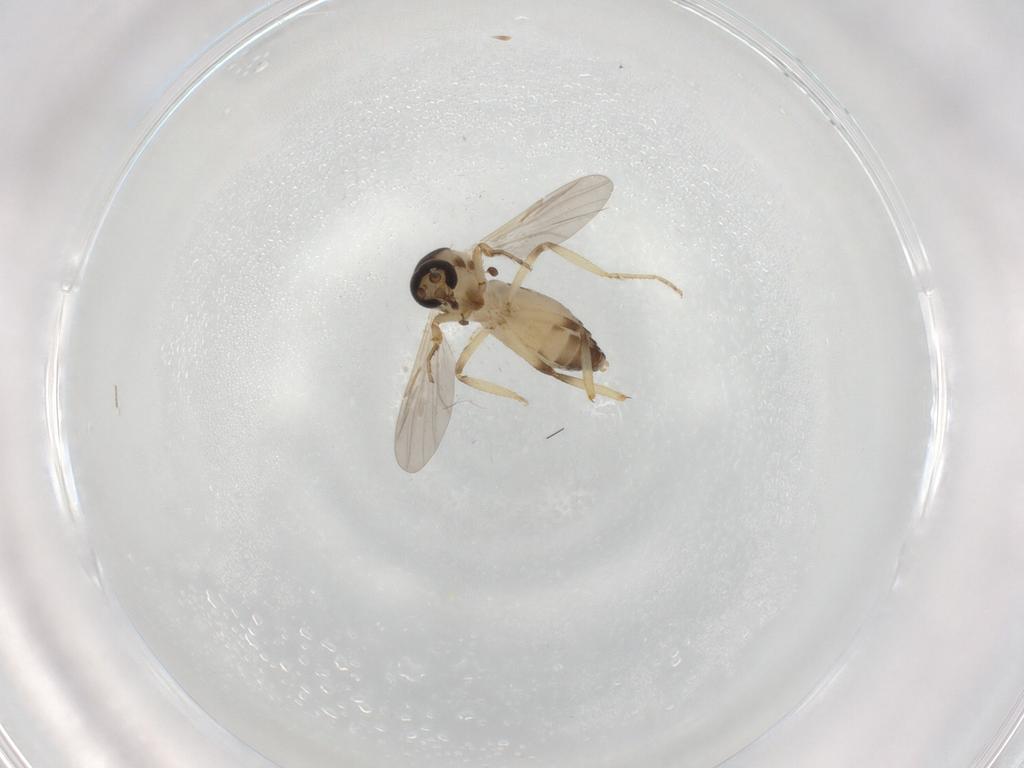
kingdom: Animalia
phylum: Arthropoda
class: Insecta
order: Diptera
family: Ceratopogonidae
